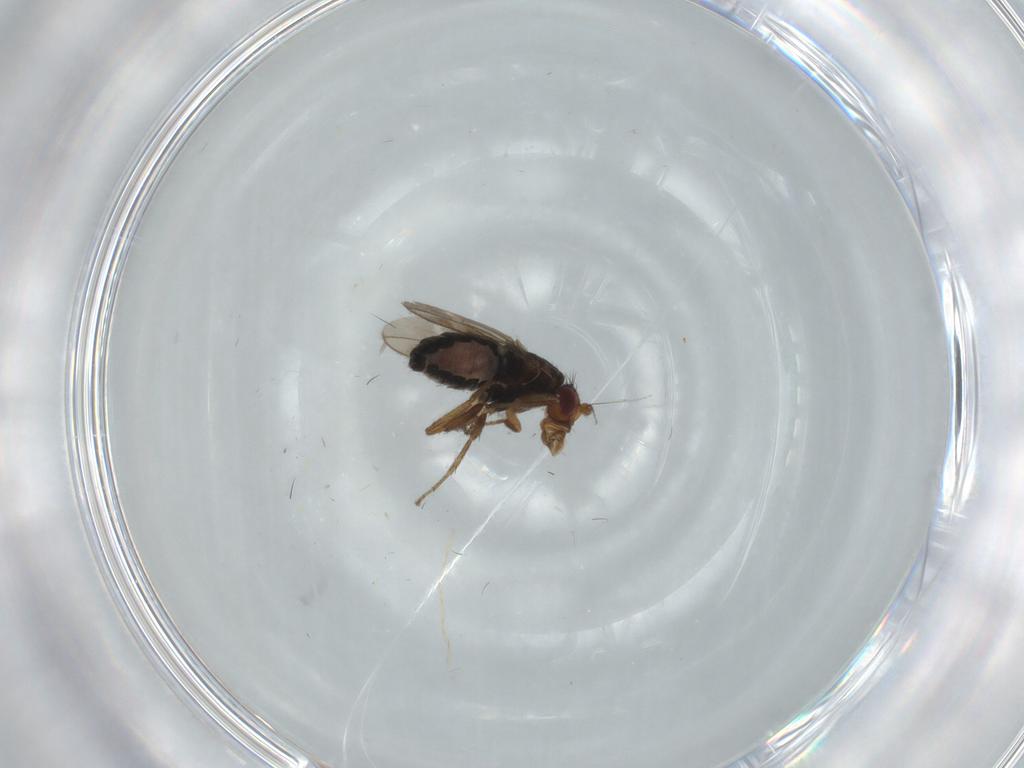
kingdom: Animalia
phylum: Arthropoda
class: Insecta
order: Diptera
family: Sphaeroceridae
